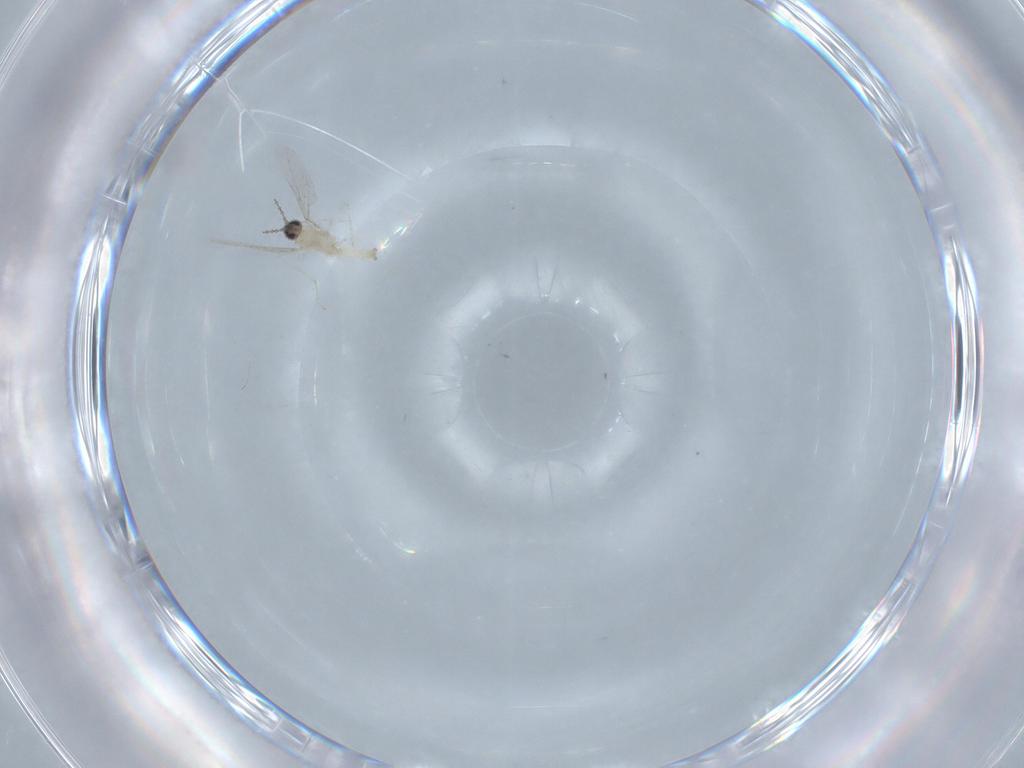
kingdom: Animalia
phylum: Arthropoda
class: Insecta
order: Diptera
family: Cecidomyiidae
